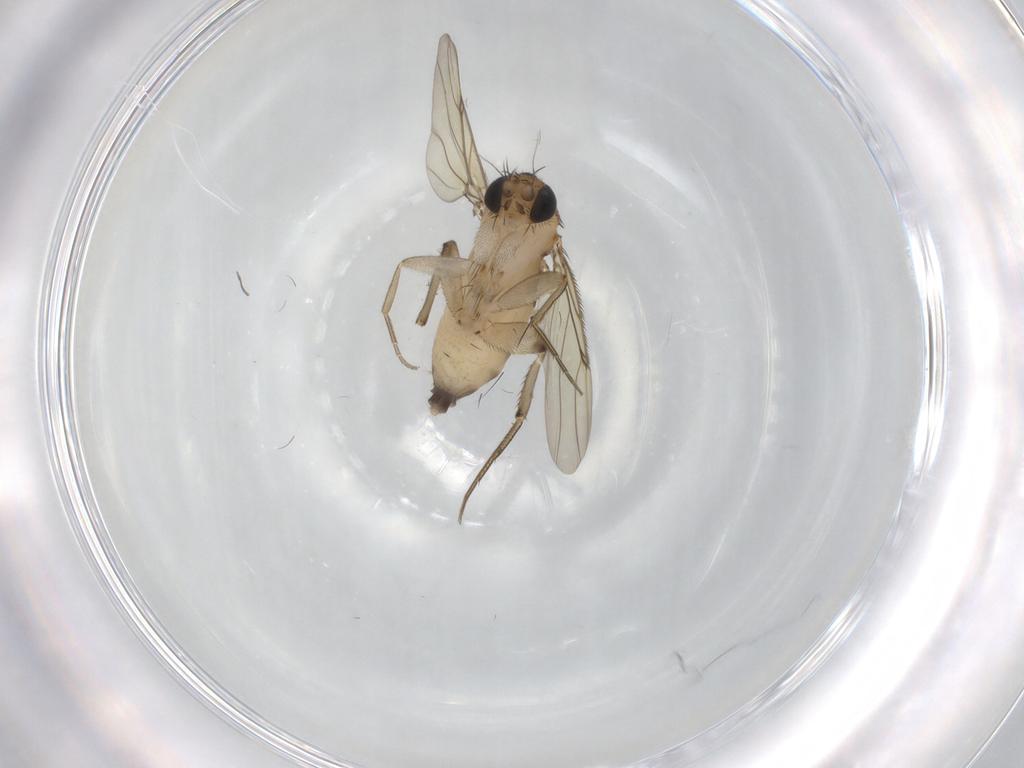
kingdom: Animalia
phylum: Arthropoda
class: Insecta
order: Diptera
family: Phoridae
